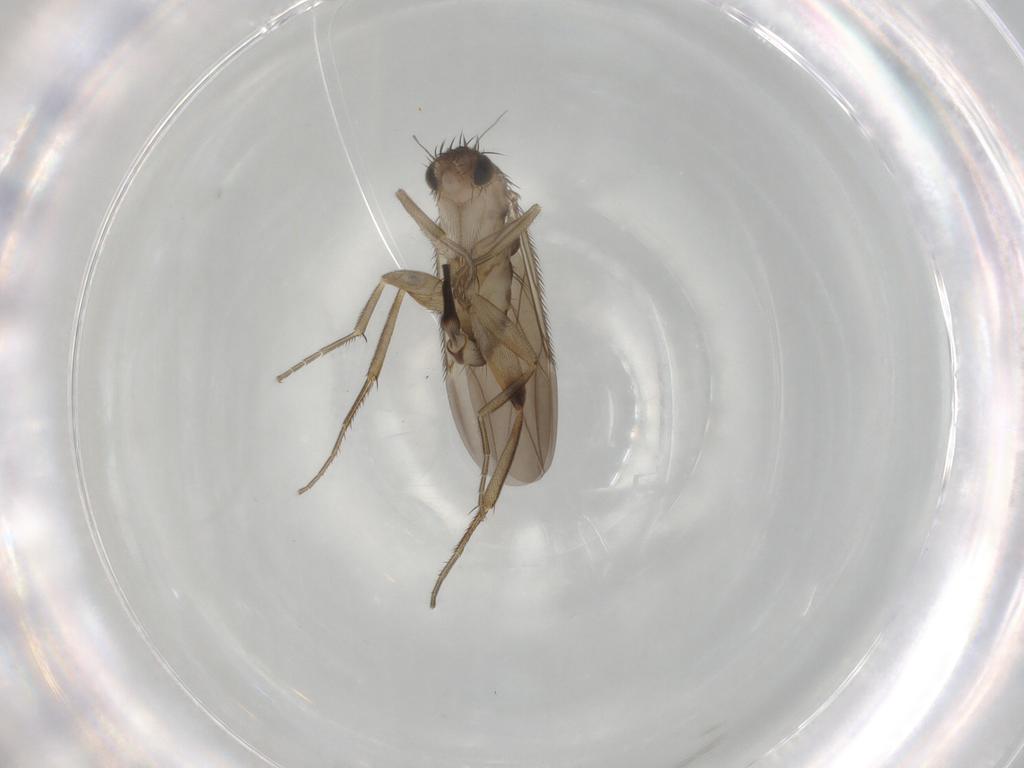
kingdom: Animalia
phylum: Arthropoda
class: Insecta
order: Diptera
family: Phoridae
